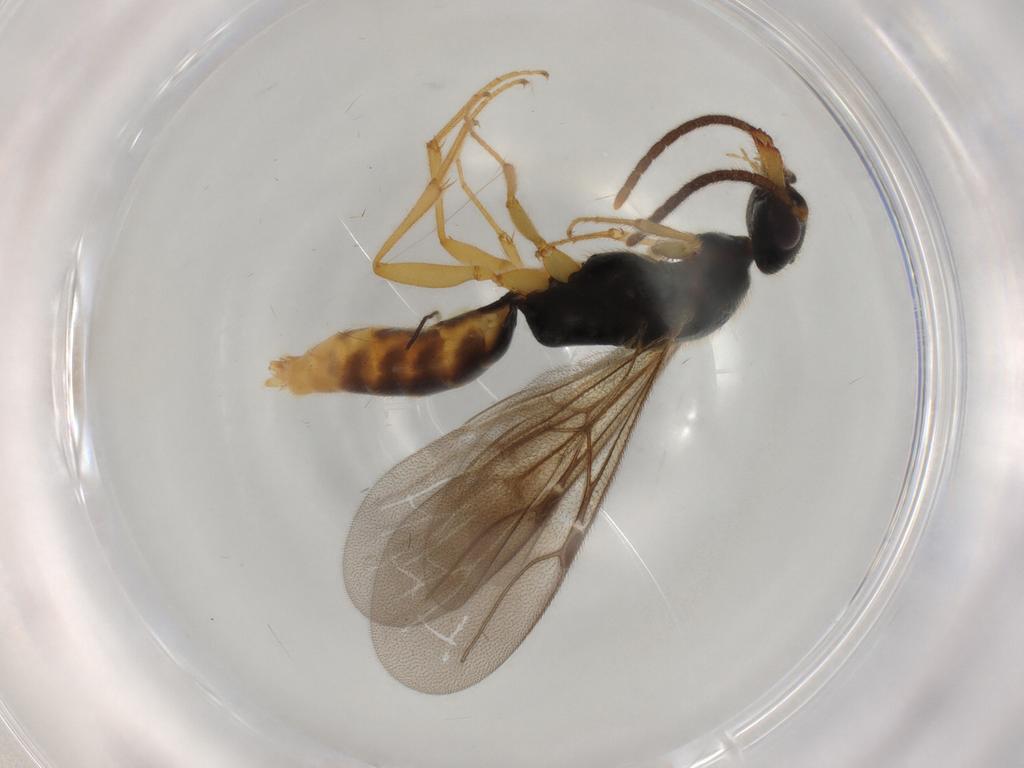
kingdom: Animalia
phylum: Arthropoda
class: Insecta
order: Hymenoptera
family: Bethylidae
